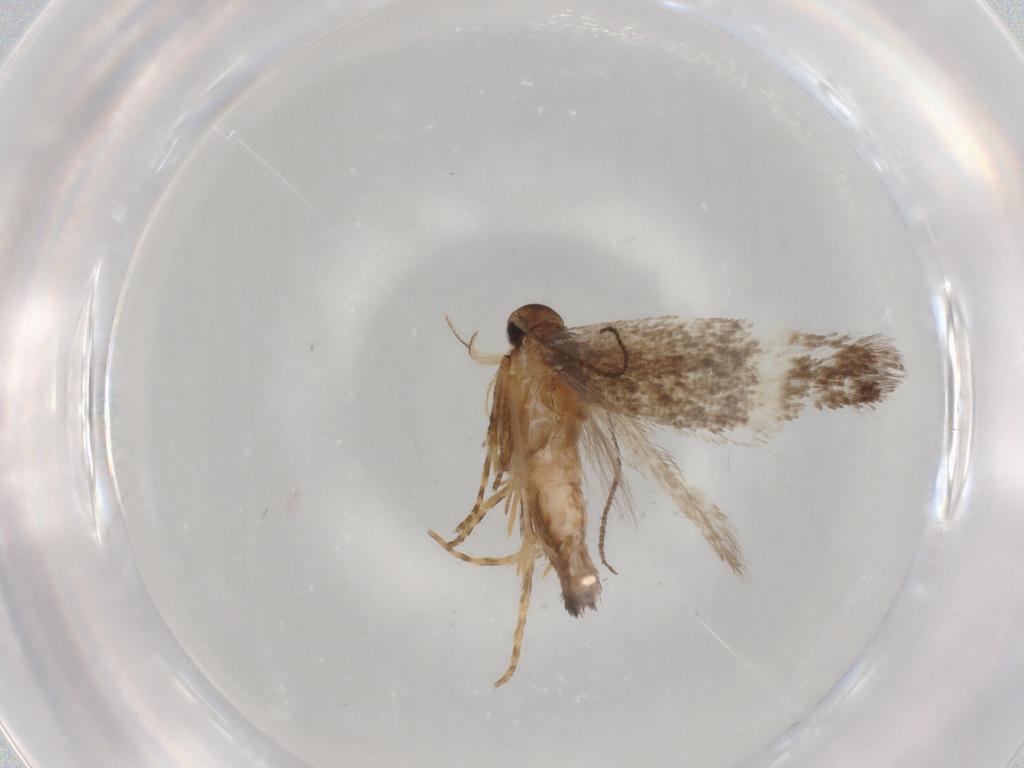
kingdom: Animalia
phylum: Arthropoda
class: Insecta
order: Lepidoptera
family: Gelechiidae
